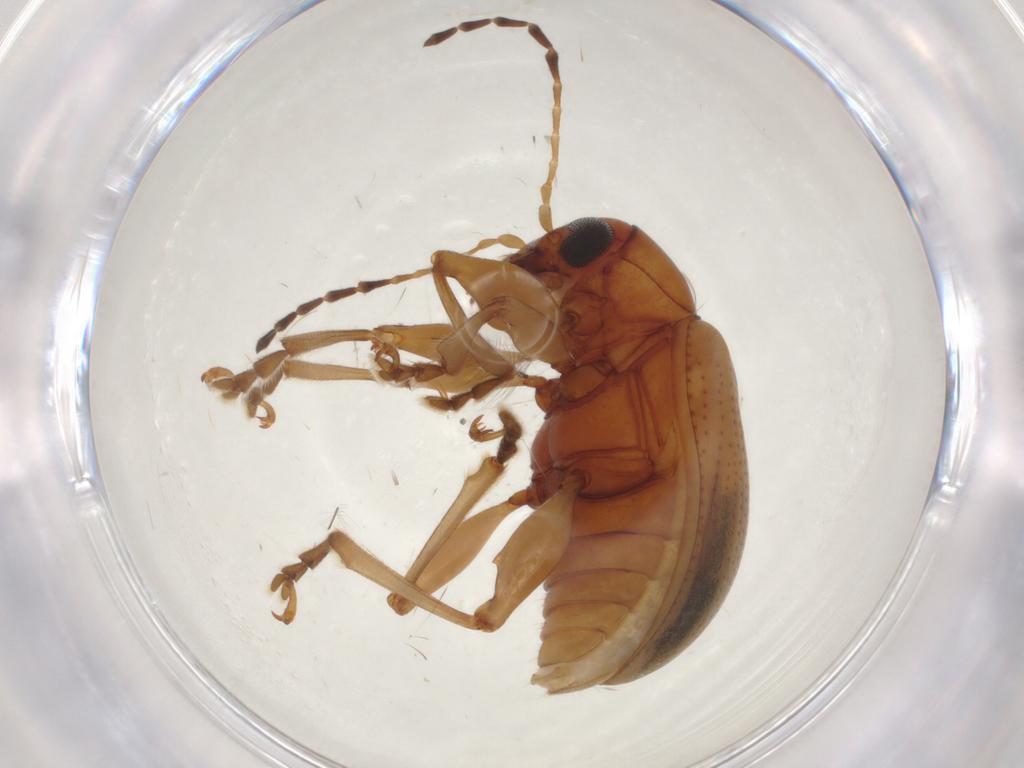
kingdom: Animalia
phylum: Arthropoda
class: Insecta
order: Coleoptera
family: Chrysomelidae
